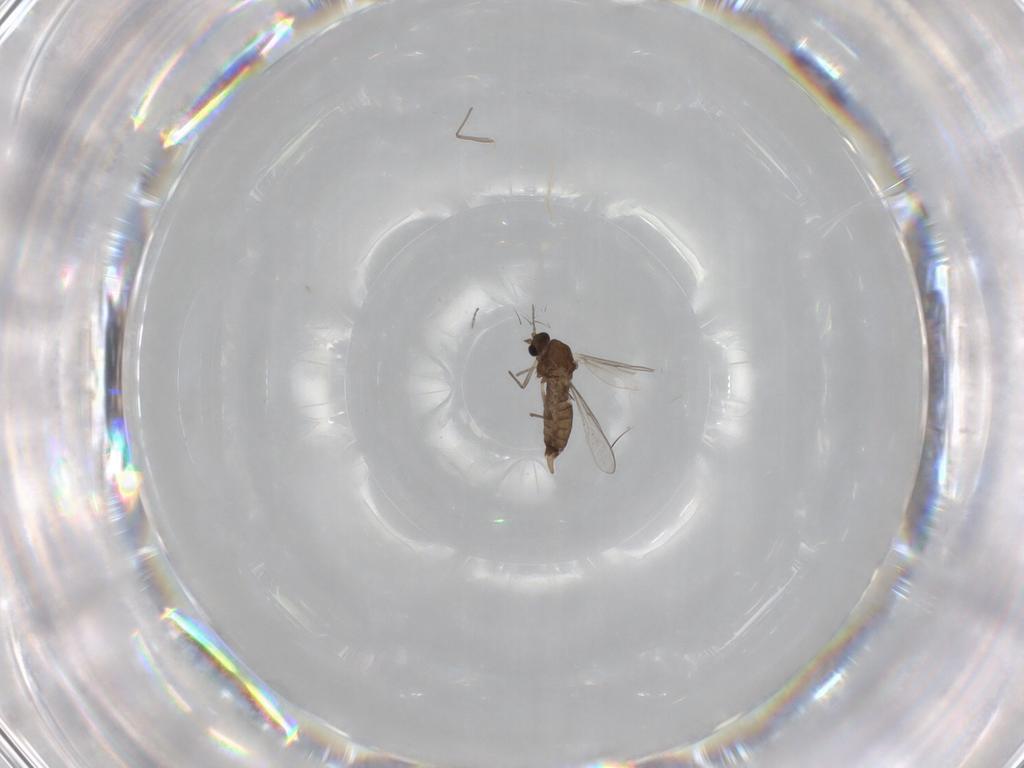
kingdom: Animalia
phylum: Arthropoda
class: Insecta
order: Diptera
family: Chironomidae
